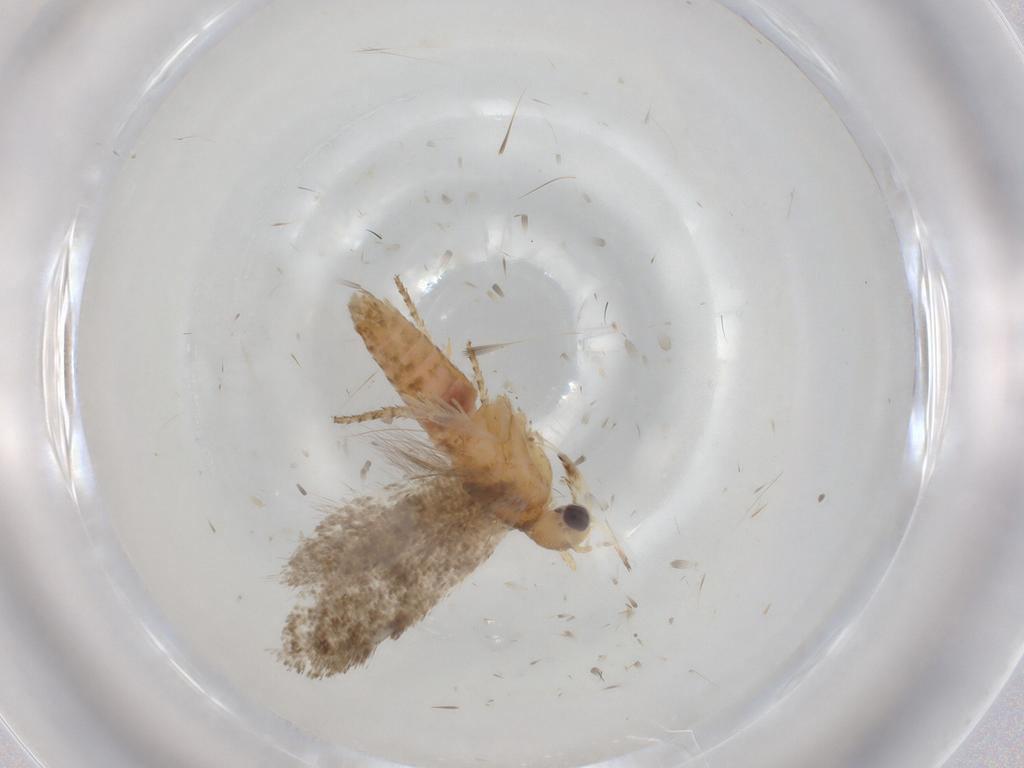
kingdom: Animalia
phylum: Arthropoda
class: Insecta
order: Lepidoptera
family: Plutellidae
